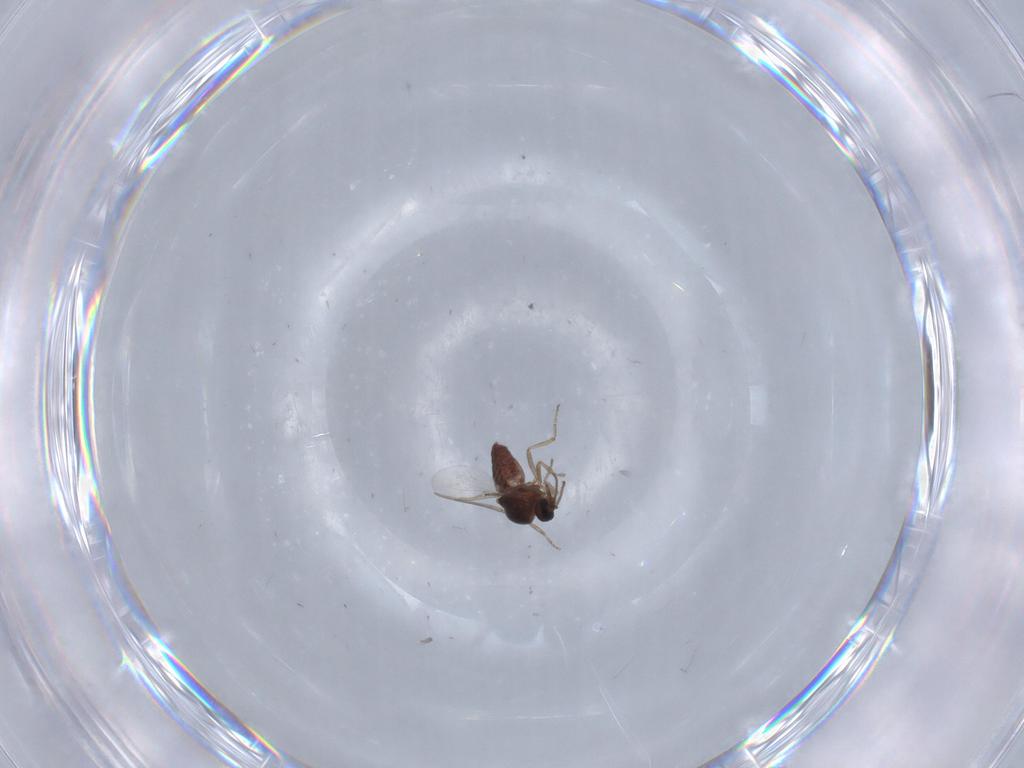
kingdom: Animalia
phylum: Arthropoda
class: Insecta
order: Diptera
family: Ceratopogonidae
